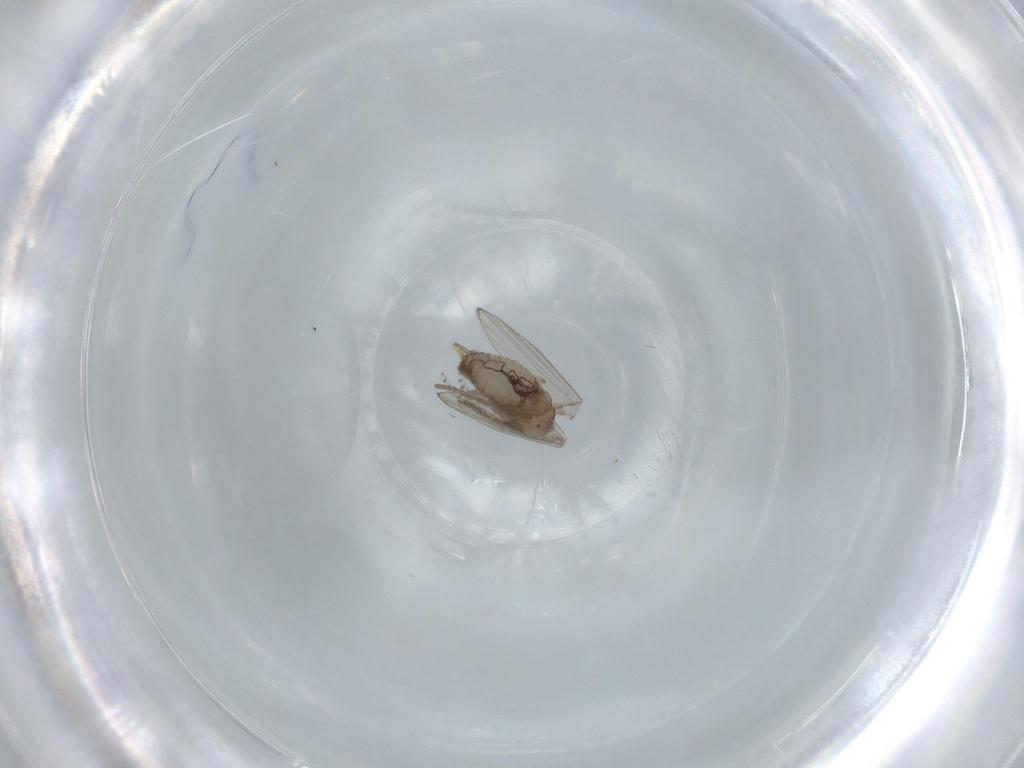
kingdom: Animalia
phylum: Arthropoda
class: Insecta
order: Diptera
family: Psychodidae
